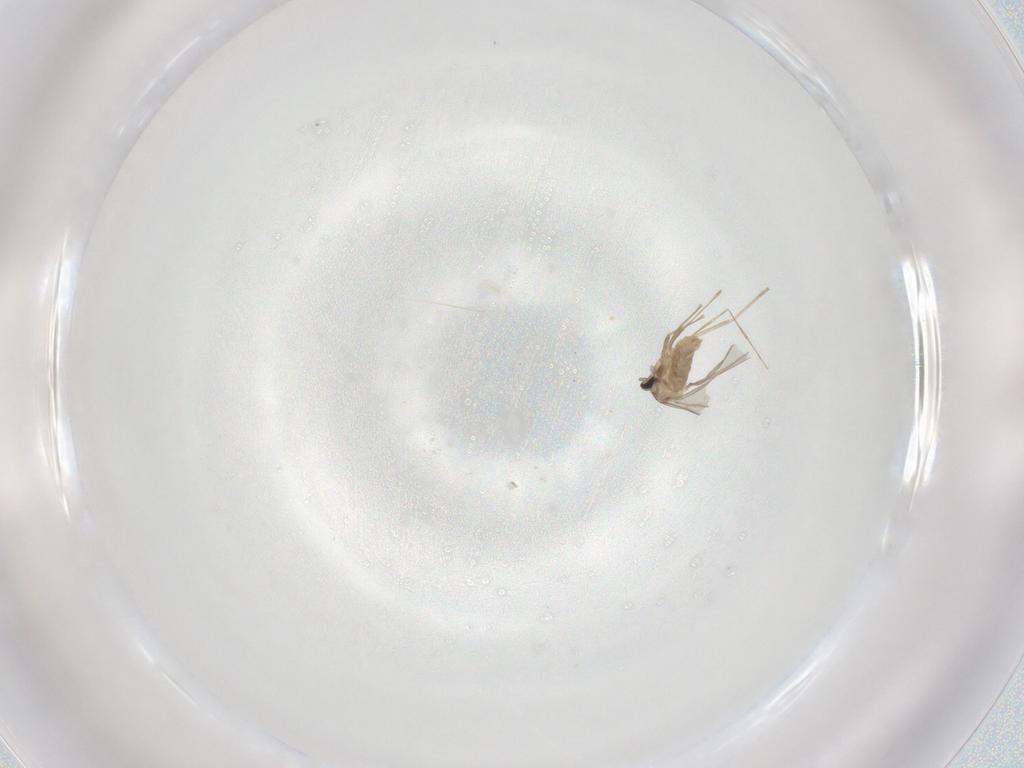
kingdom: Animalia
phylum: Arthropoda
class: Insecta
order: Diptera
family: Cecidomyiidae
